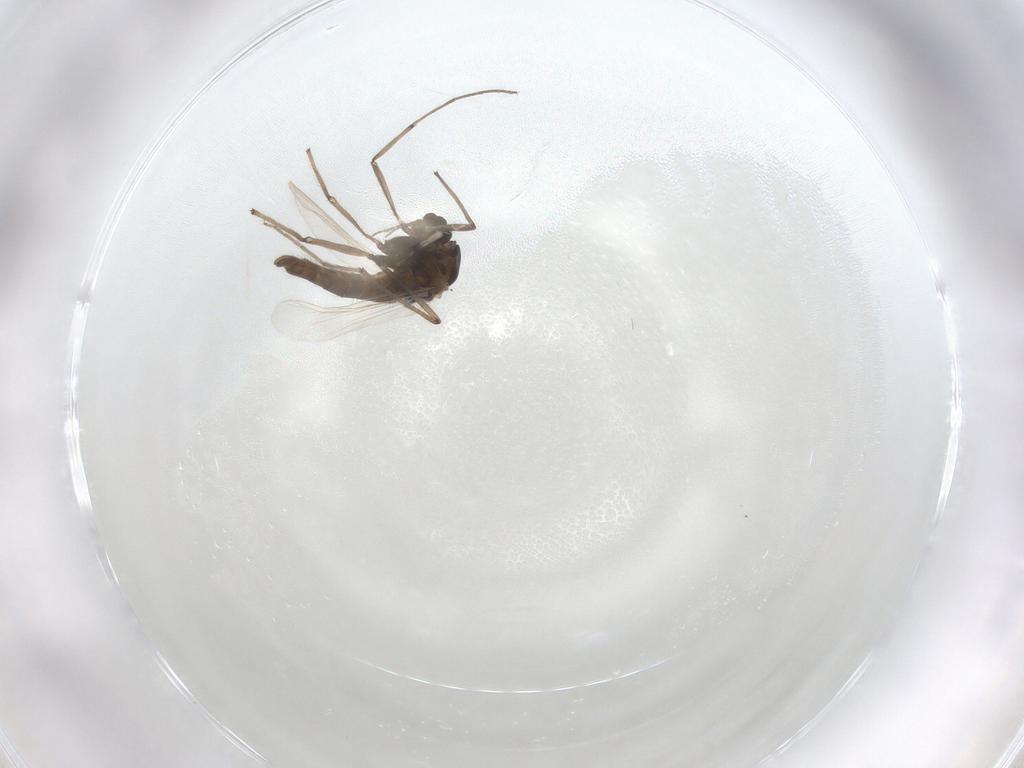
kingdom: Animalia
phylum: Arthropoda
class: Insecta
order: Diptera
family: Chironomidae
